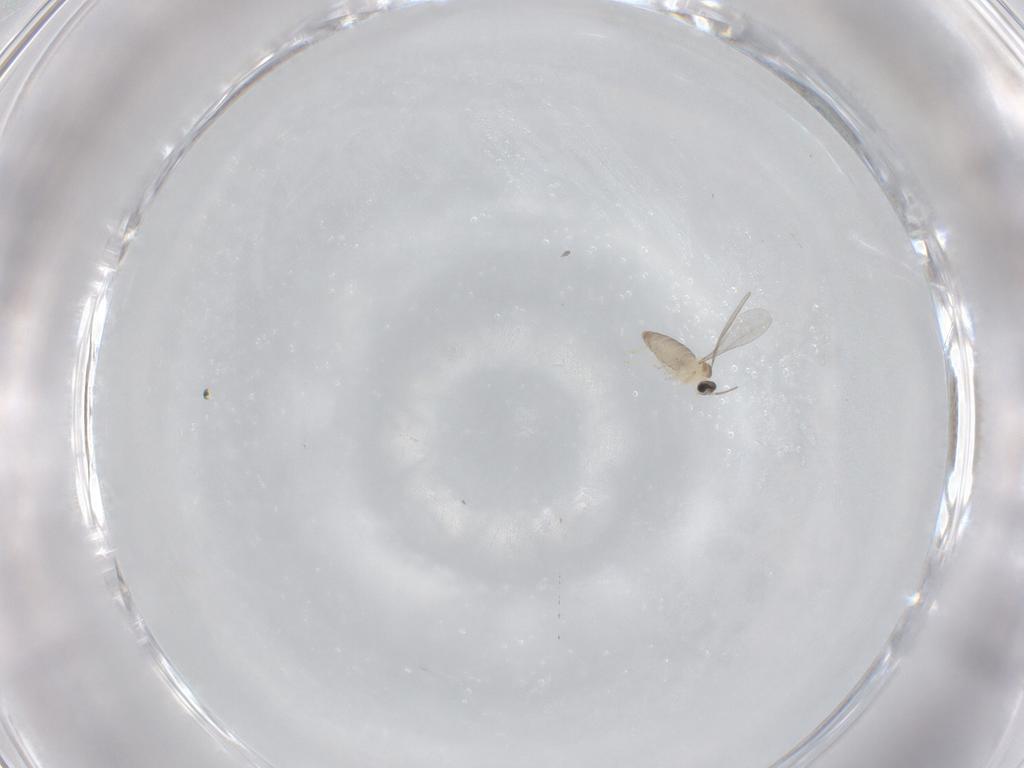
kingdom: Animalia
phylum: Arthropoda
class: Insecta
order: Diptera
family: Cecidomyiidae
